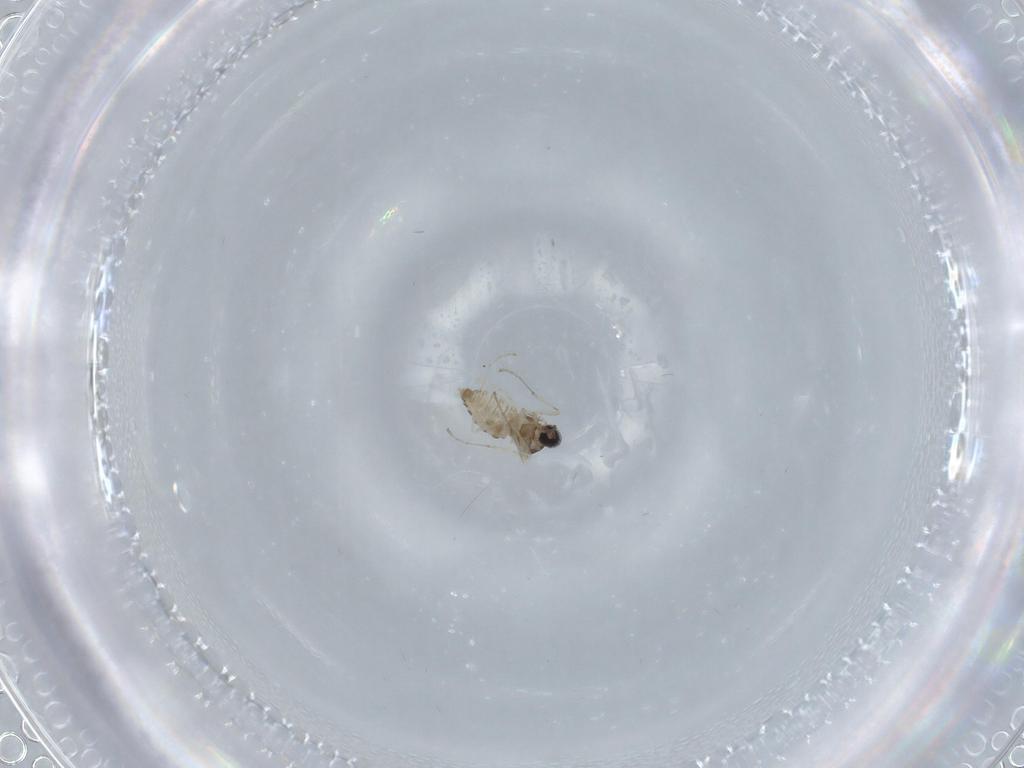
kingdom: Animalia
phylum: Arthropoda
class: Insecta
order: Diptera
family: Cecidomyiidae
